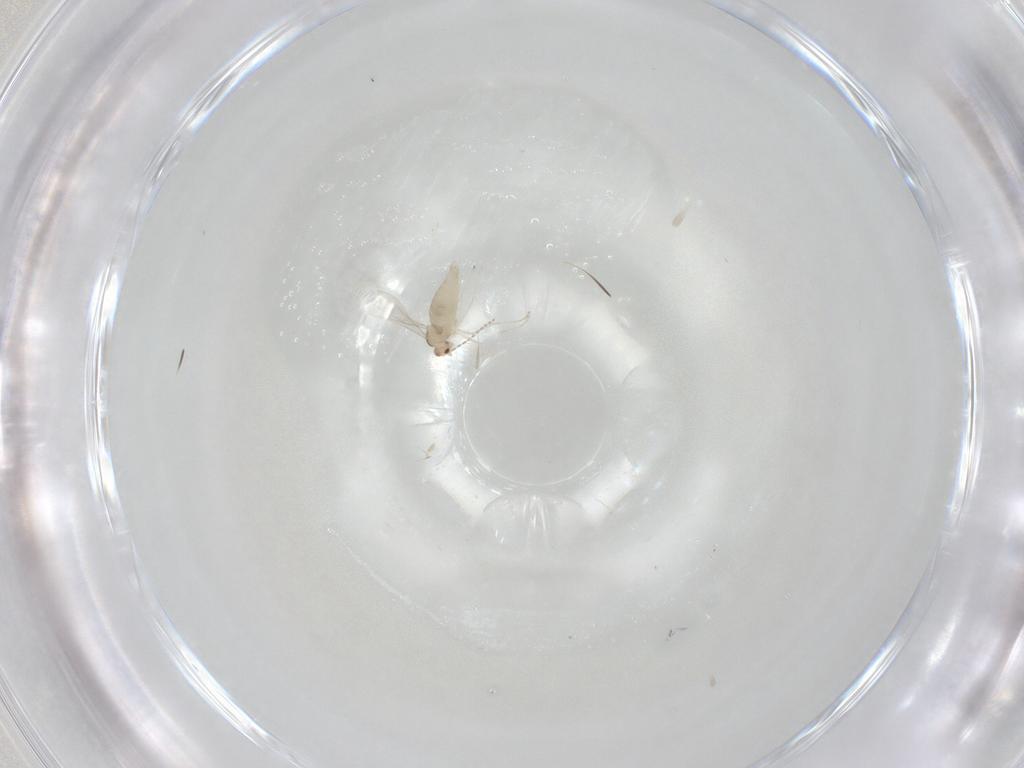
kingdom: Animalia
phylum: Arthropoda
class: Insecta
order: Diptera
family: Cecidomyiidae
